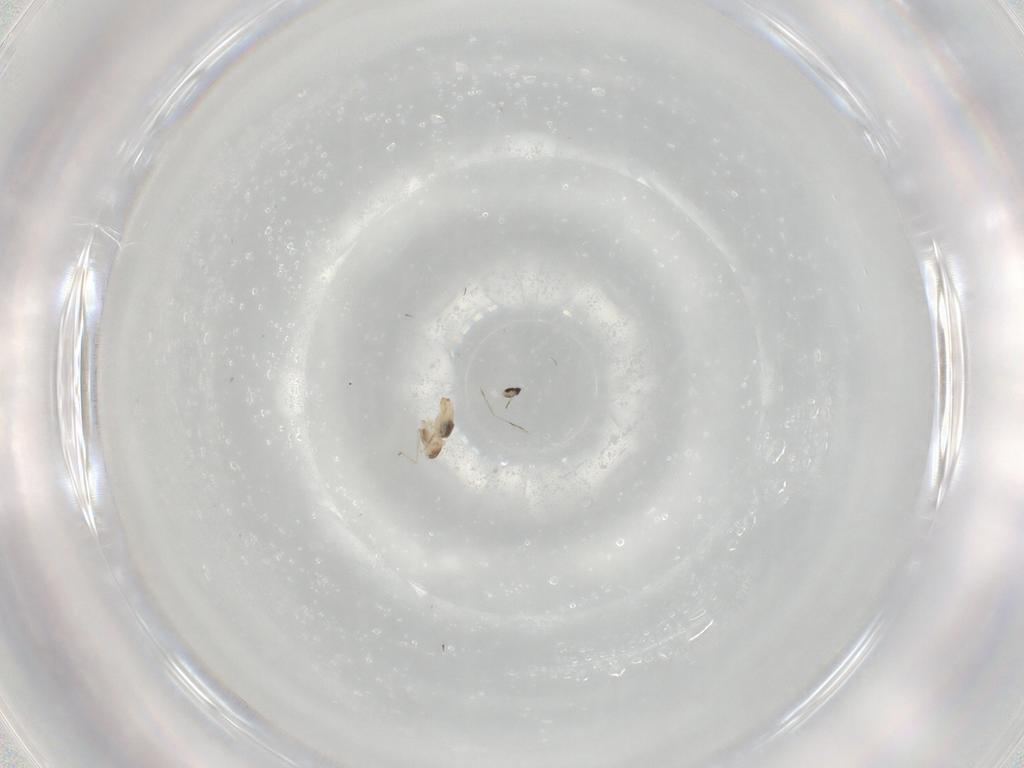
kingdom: Animalia
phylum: Arthropoda
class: Insecta
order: Diptera
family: Cecidomyiidae
